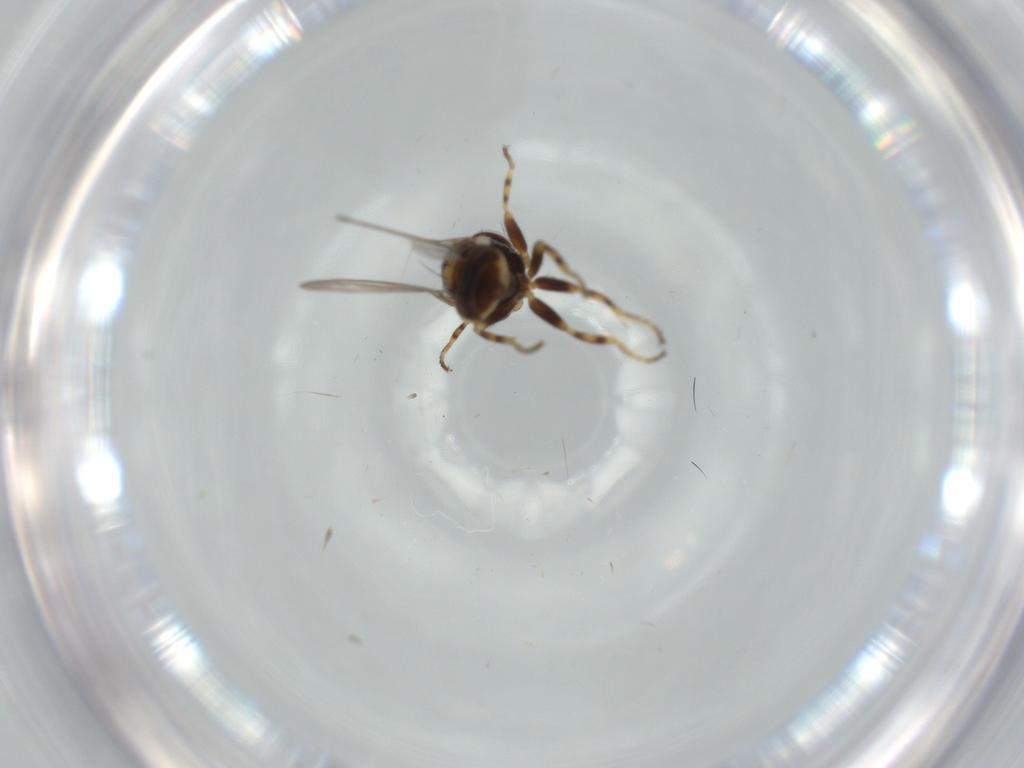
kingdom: Animalia
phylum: Arthropoda
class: Insecta
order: Diptera
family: Chloropidae
